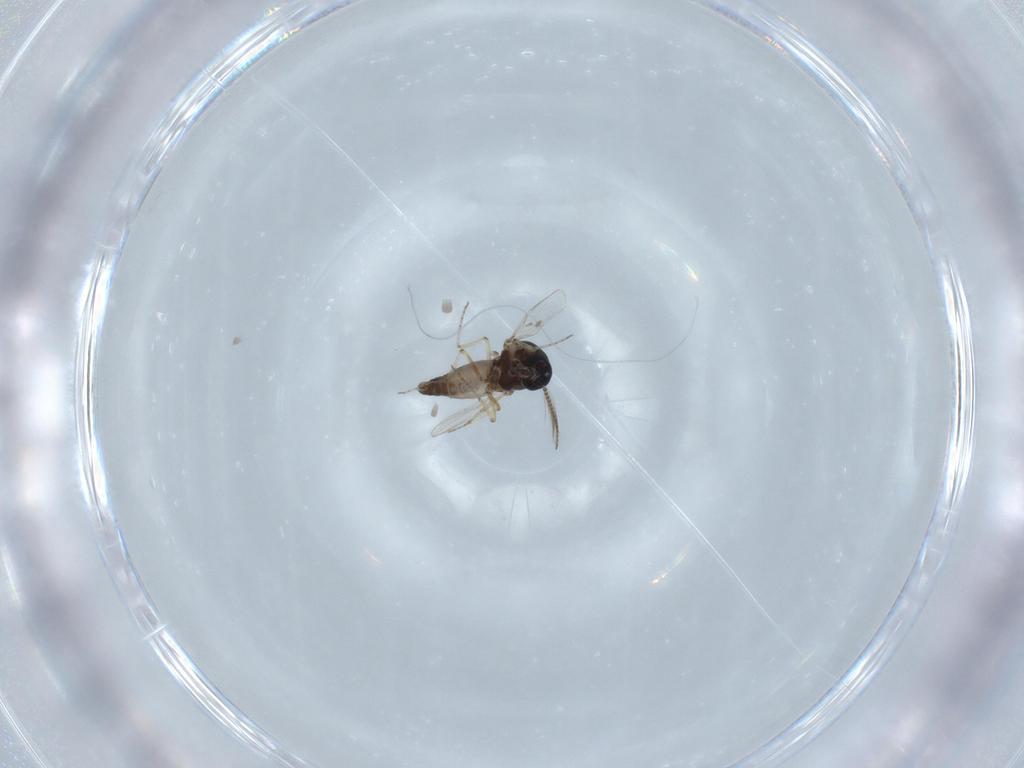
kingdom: Animalia
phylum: Arthropoda
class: Insecta
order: Diptera
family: Ceratopogonidae
